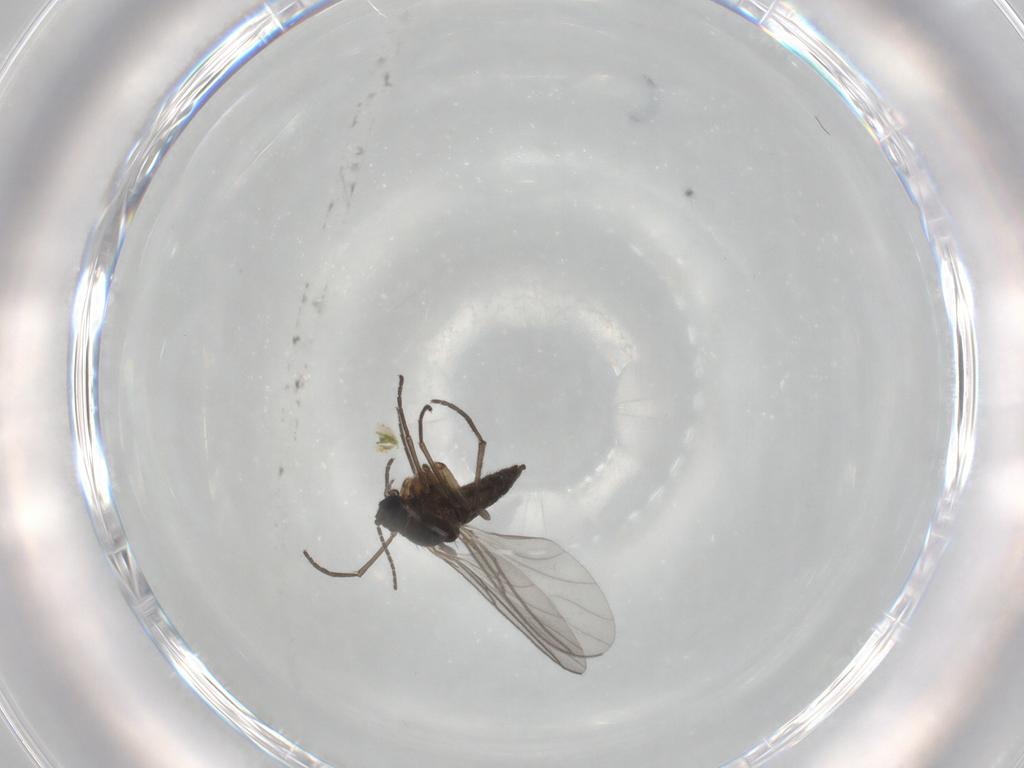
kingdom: Animalia
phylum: Arthropoda
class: Insecta
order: Diptera
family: Sciaridae
